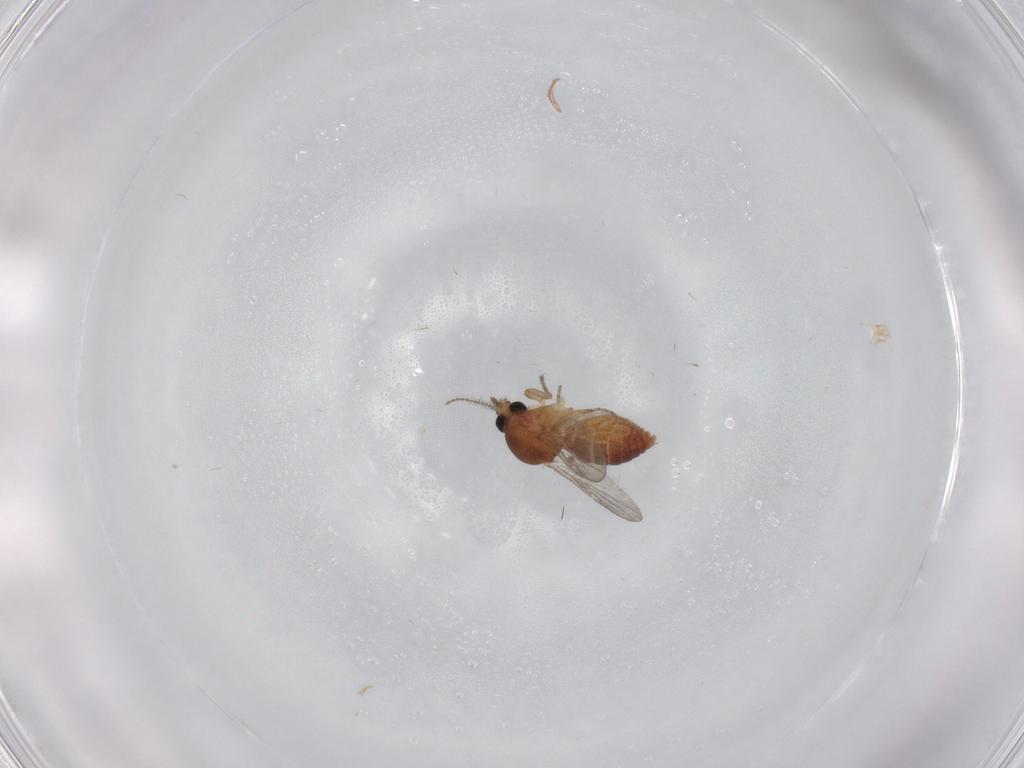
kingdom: Animalia
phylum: Arthropoda
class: Insecta
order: Diptera
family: Ceratopogonidae
